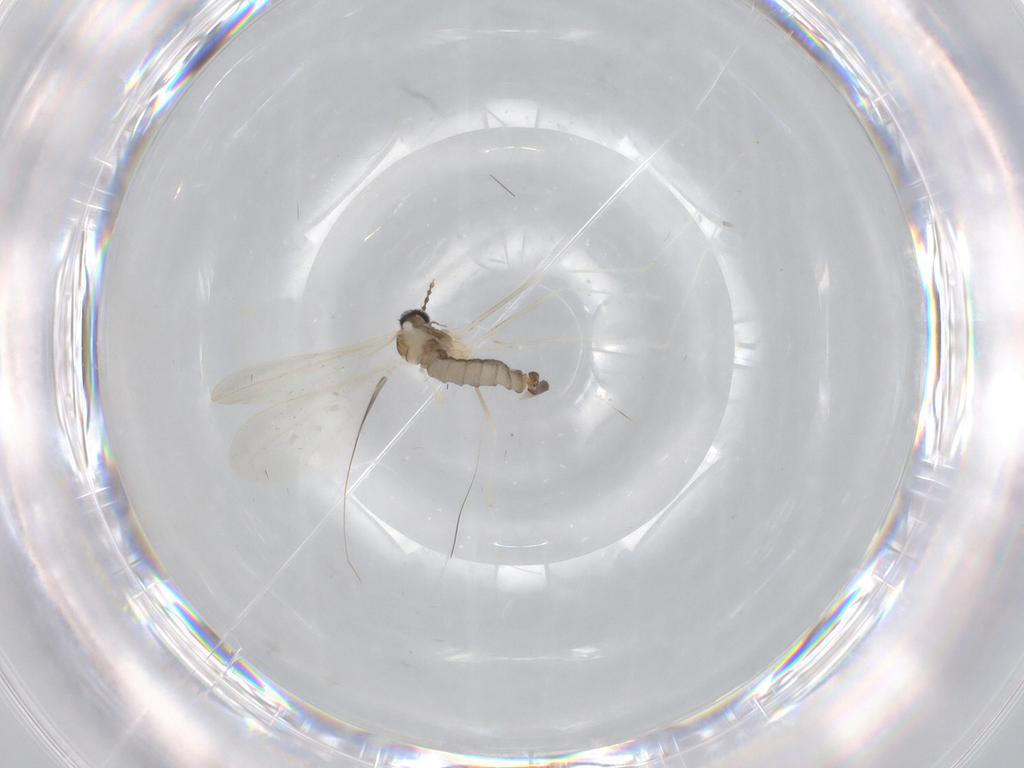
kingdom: Animalia
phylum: Arthropoda
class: Insecta
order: Diptera
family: Cecidomyiidae
